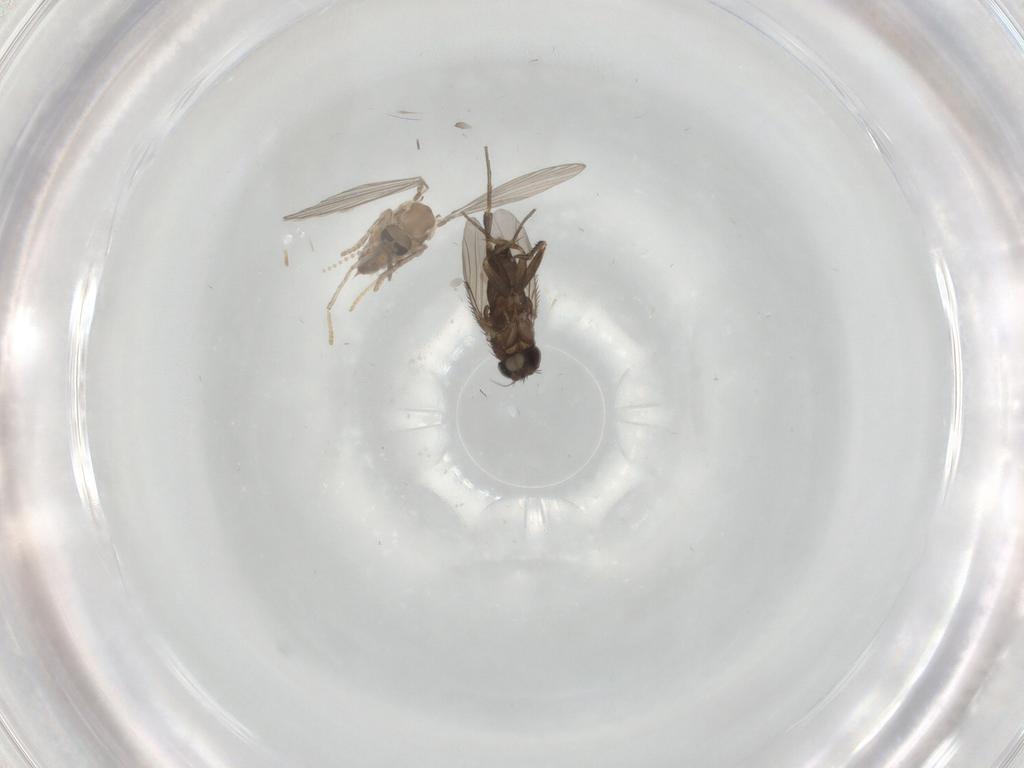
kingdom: Animalia
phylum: Arthropoda
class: Insecta
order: Diptera
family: Psychodidae
